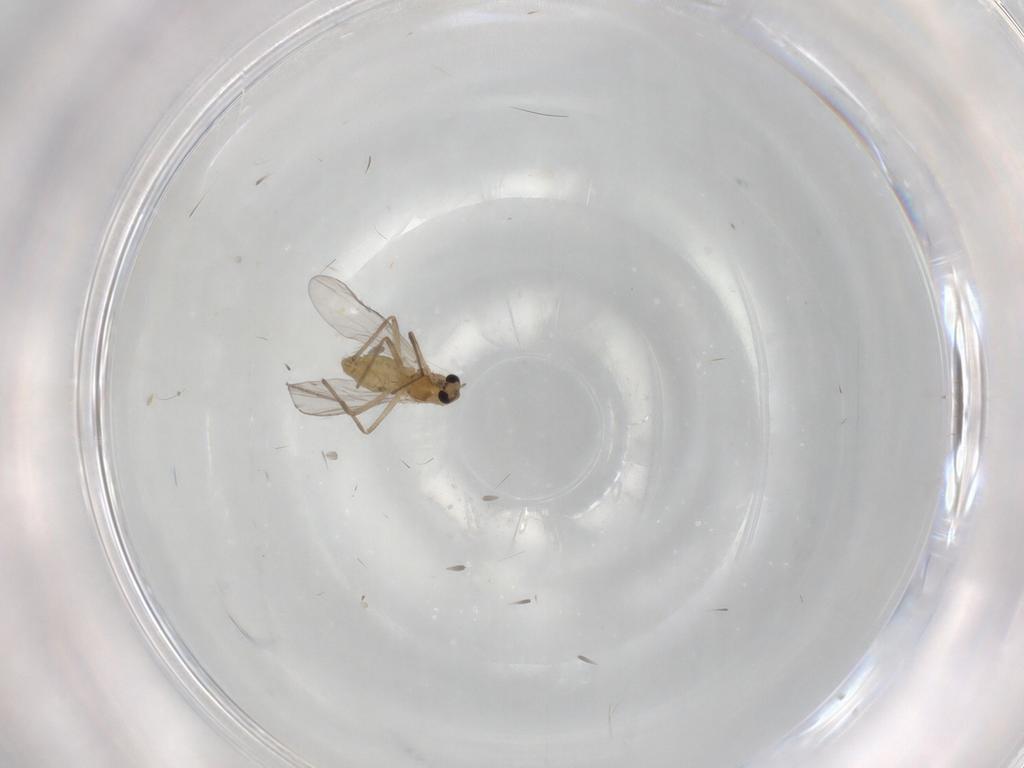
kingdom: Animalia
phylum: Arthropoda
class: Insecta
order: Diptera
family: Chironomidae
